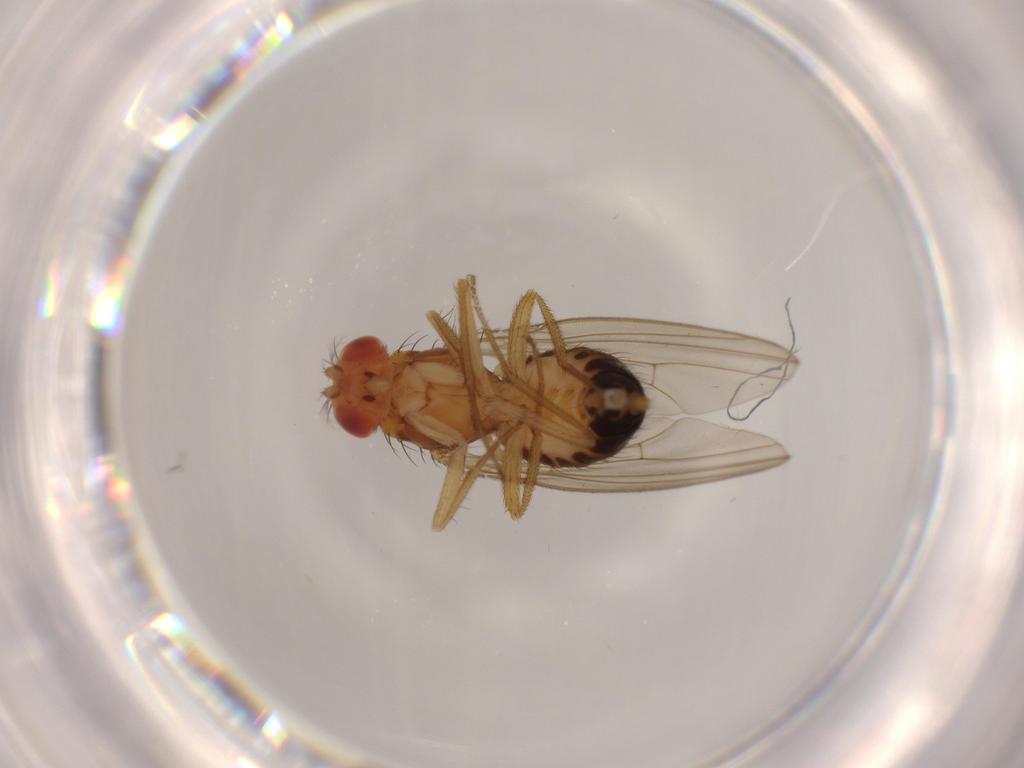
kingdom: Animalia
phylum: Arthropoda
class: Insecta
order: Diptera
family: Drosophilidae
